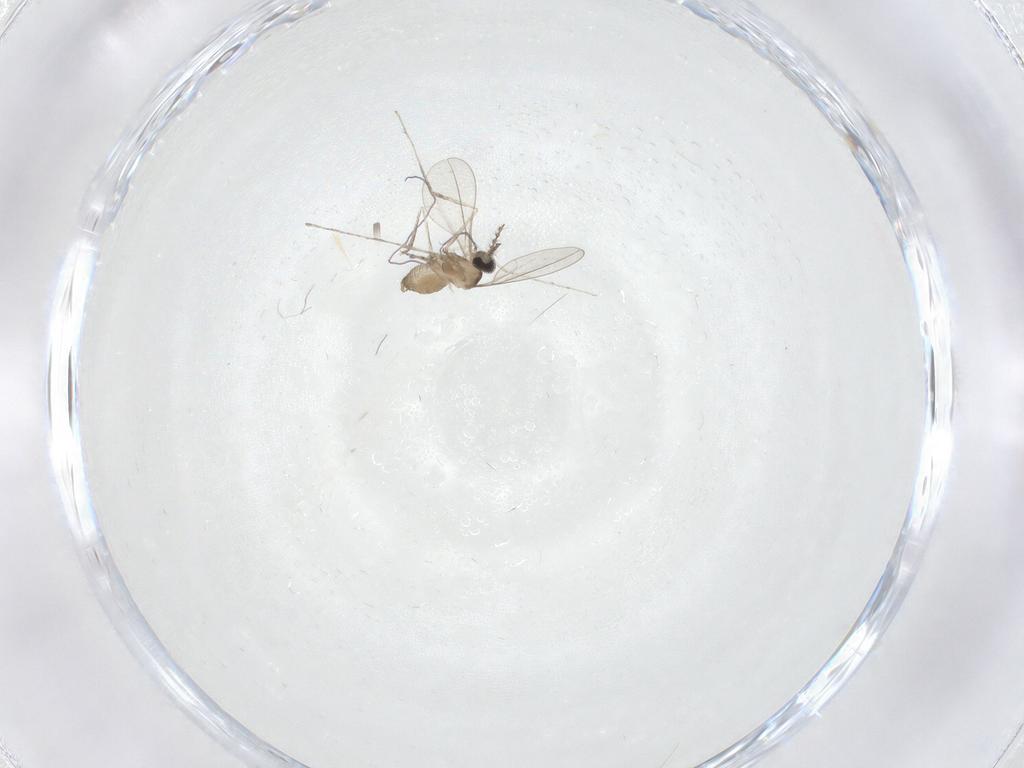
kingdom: Animalia
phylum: Arthropoda
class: Insecta
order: Diptera
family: Cecidomyiidae
